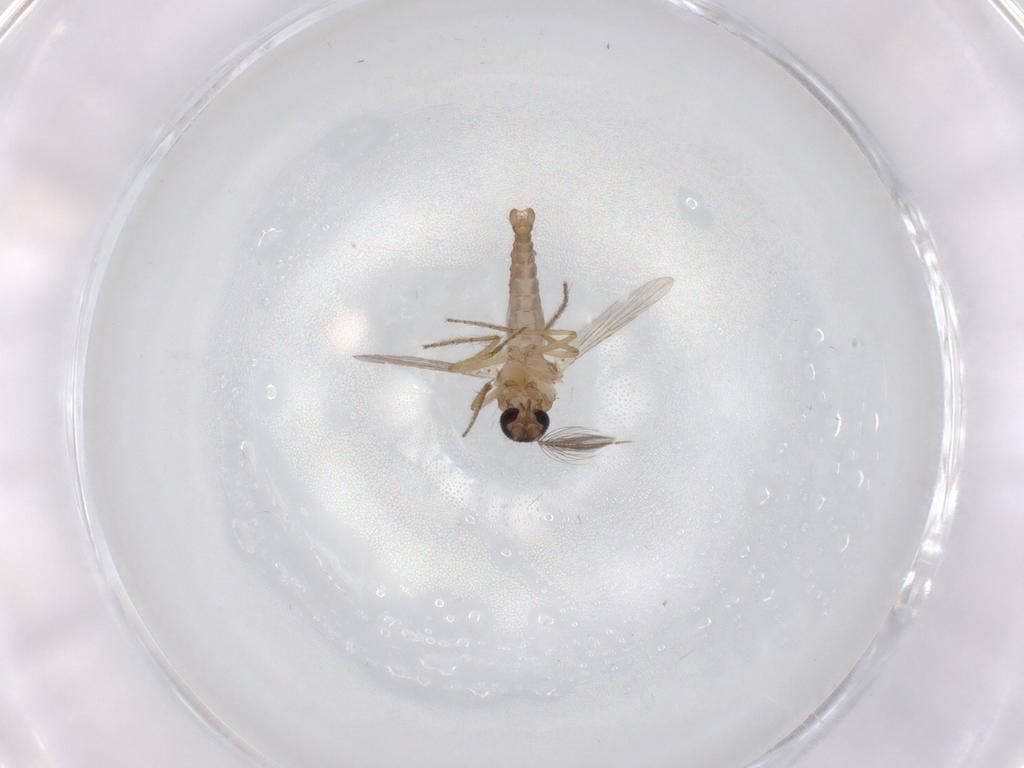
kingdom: Animalia
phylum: Arthropoda
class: Insecta
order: Diptera
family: Ceratopogonidae
